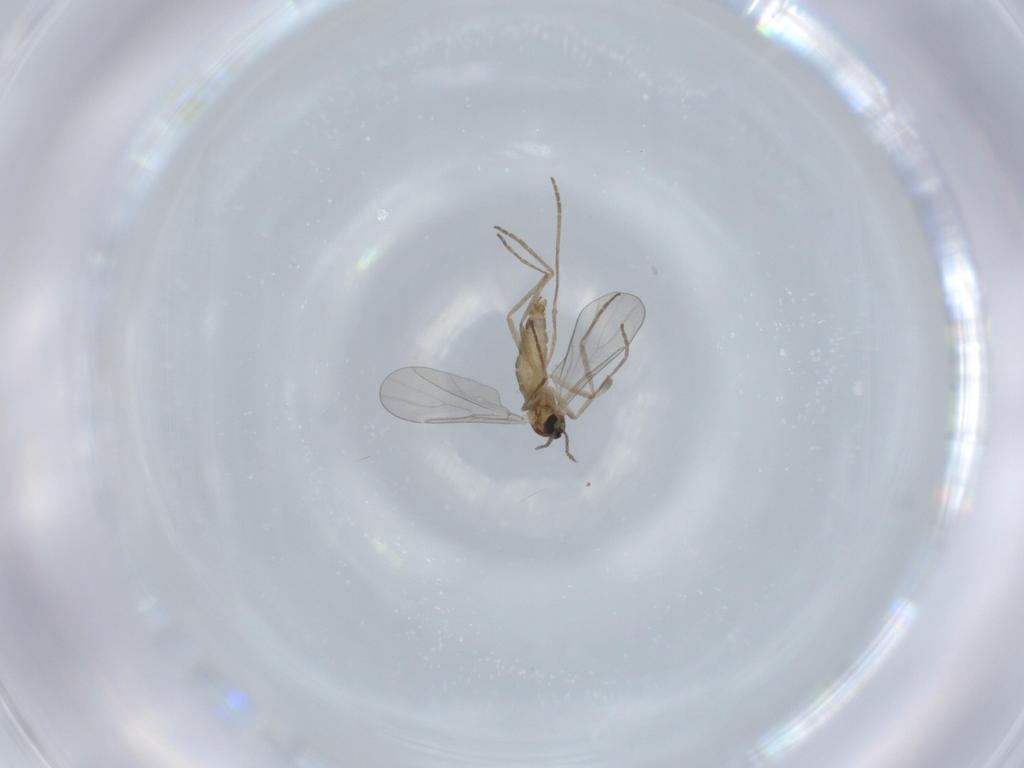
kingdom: Animalia
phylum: Arthropoda
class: Insecta
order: Diptera
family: Cecidomyiidae
